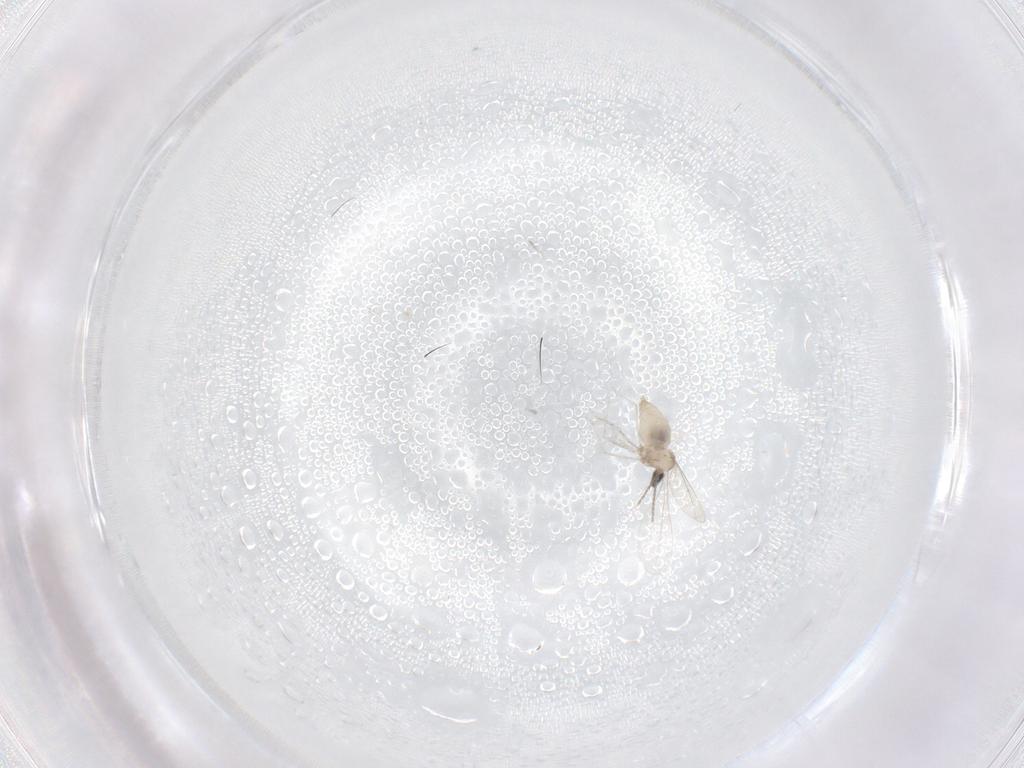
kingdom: Animalia
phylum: Arthropoda
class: Insecta
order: Diptera
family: Cecidomyiidae
